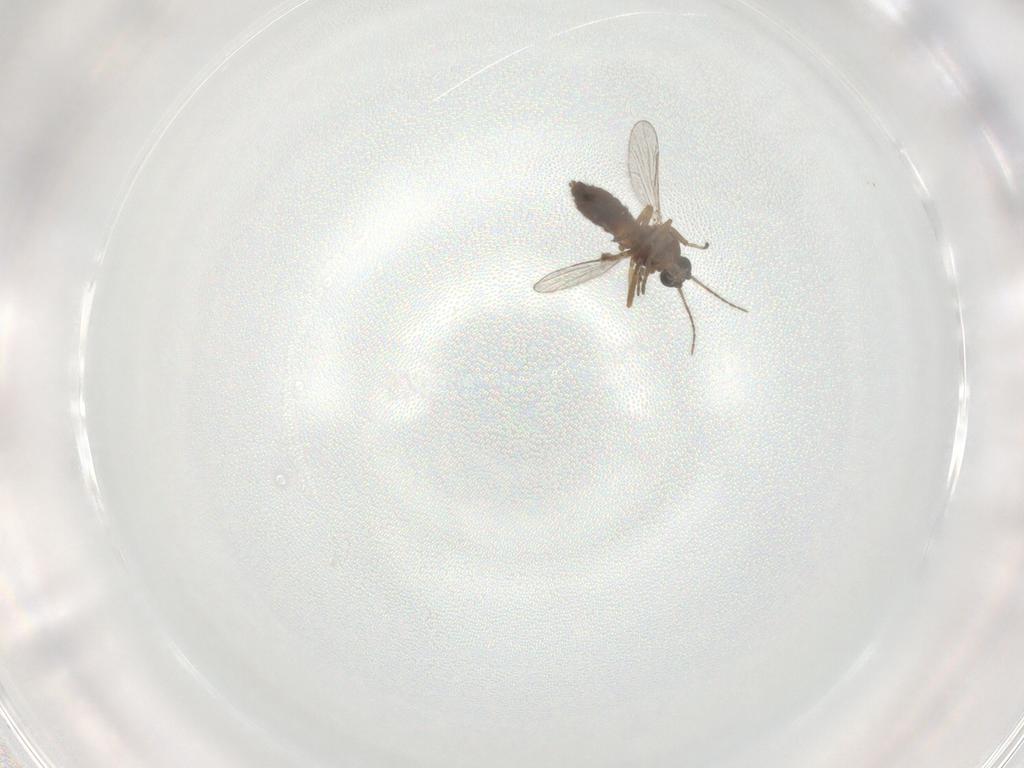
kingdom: Animalia
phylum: Arthropoda
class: Insecta
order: Diptera
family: Ceratopogonidae
